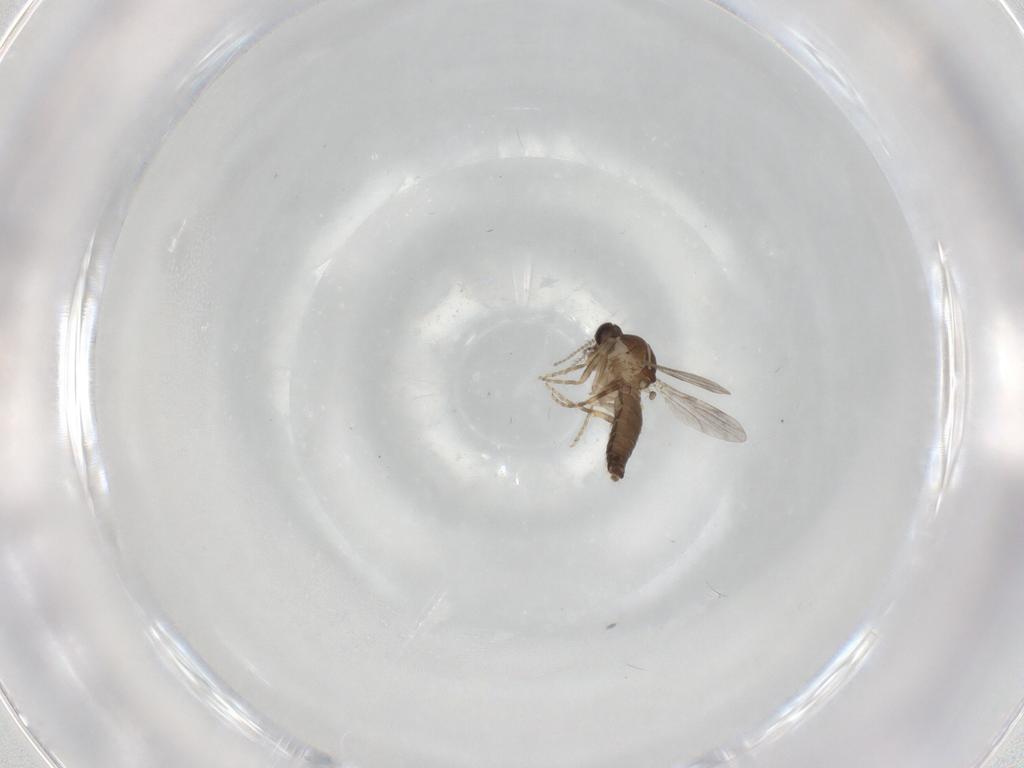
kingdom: Animalia
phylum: Arthropoda
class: Insecta
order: Diptera
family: Ceratopogonidae
